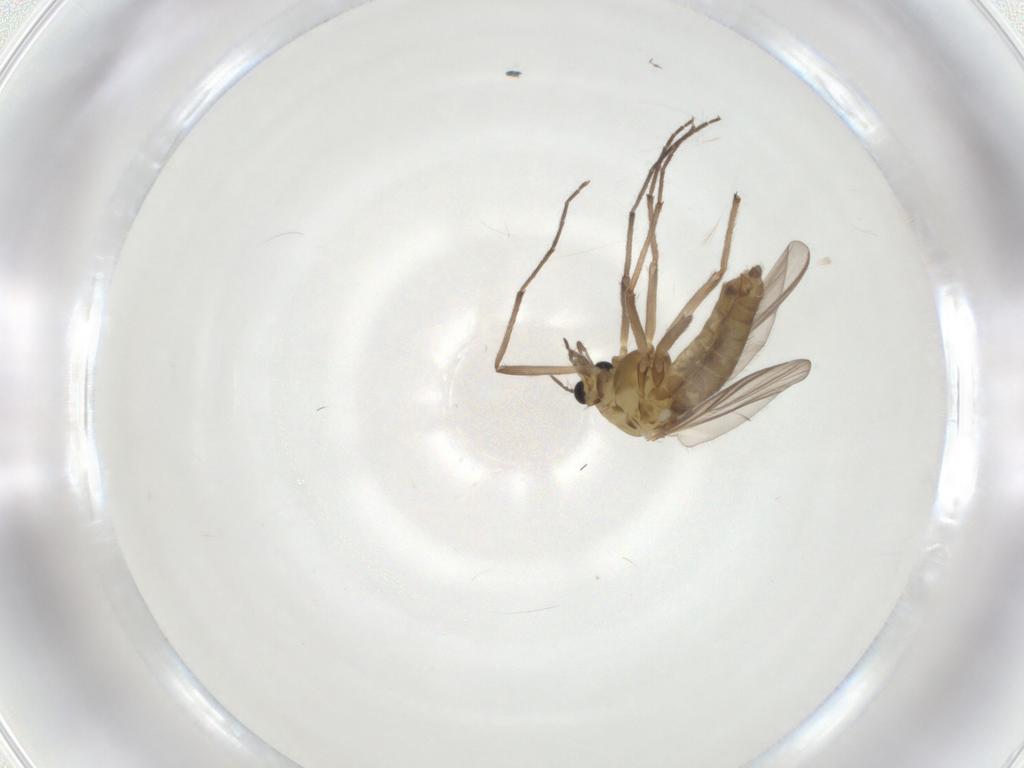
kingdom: Animalia
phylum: Arthropoda
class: Insecta
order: Diptera
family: Chironomidae
